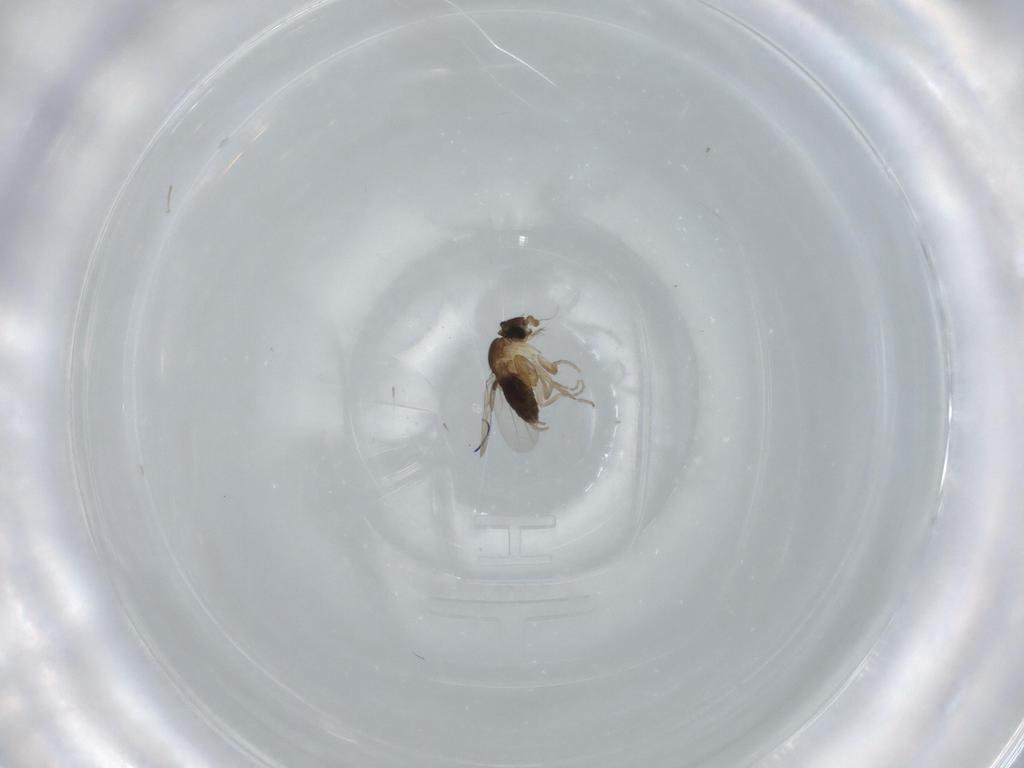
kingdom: Animalia
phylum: Arthropoda
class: Insecta
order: Diptera
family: Phoridae
